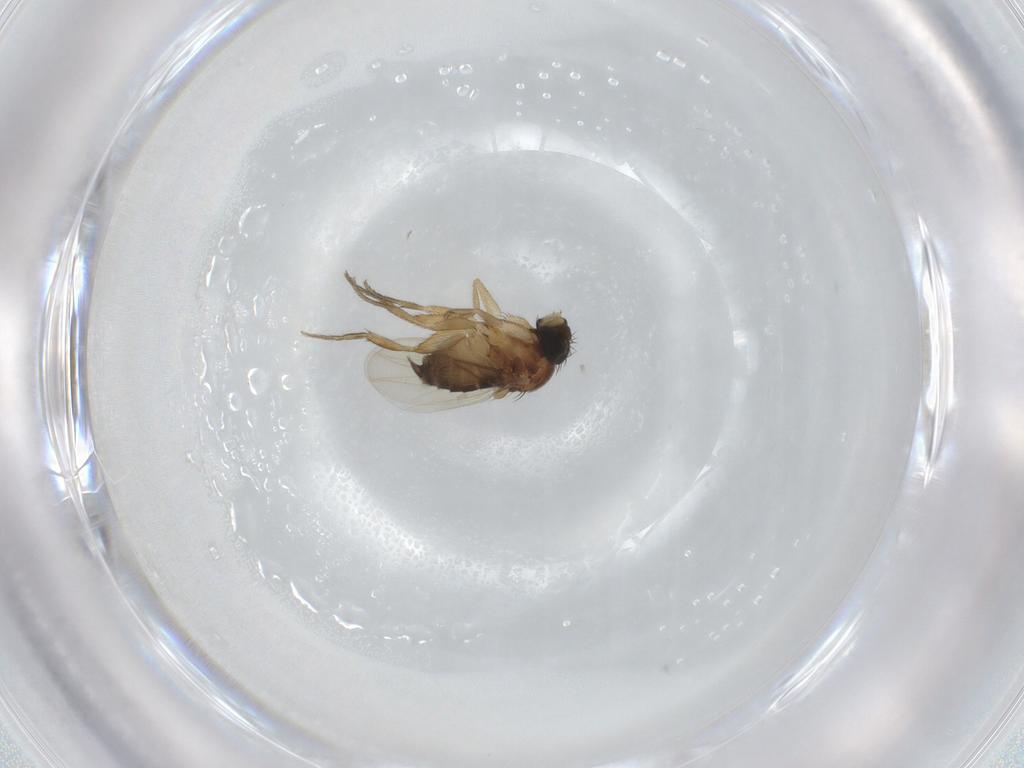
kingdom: Animalia
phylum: Arthropoda
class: Insecta
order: Diptera
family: Phoridae
